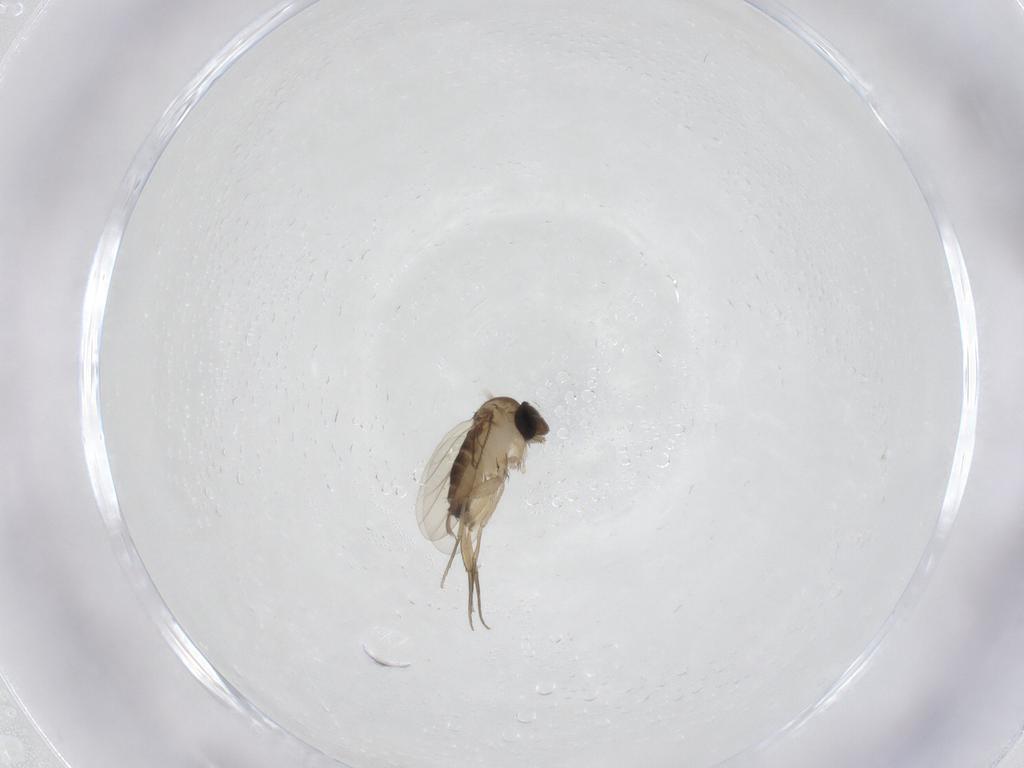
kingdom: Animalia
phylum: Arthropoda
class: Insecta
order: Diptera
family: Phoridae
